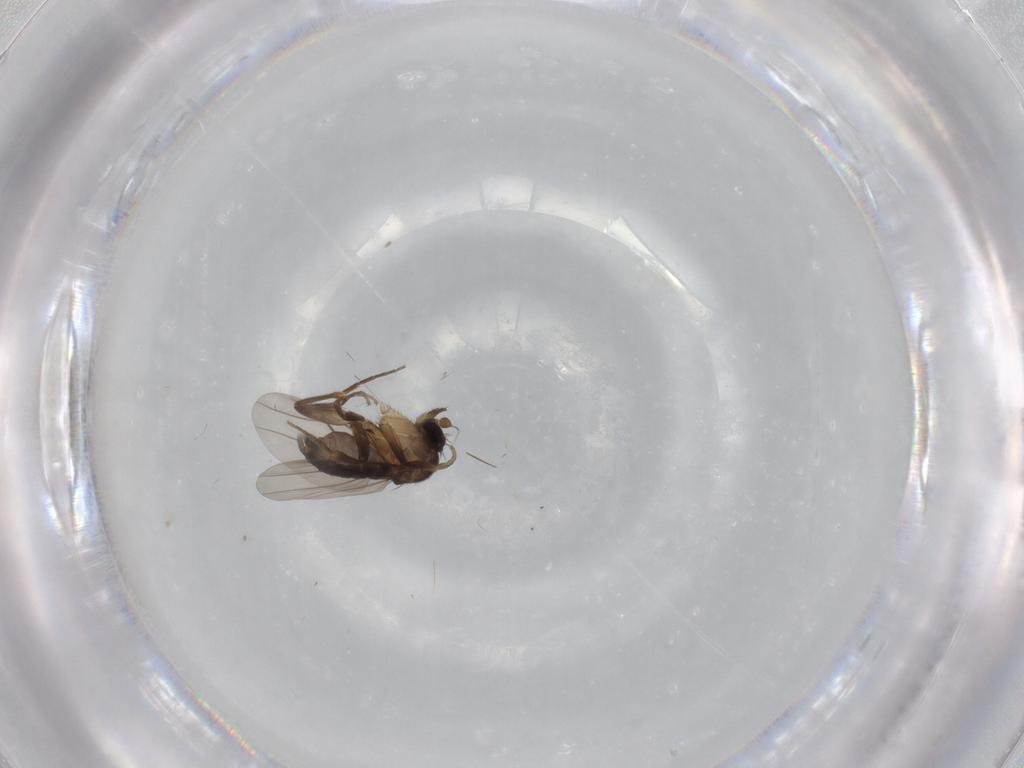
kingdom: Animalia
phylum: Arthropoda
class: Insecta
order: Diptera
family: Phoridae
